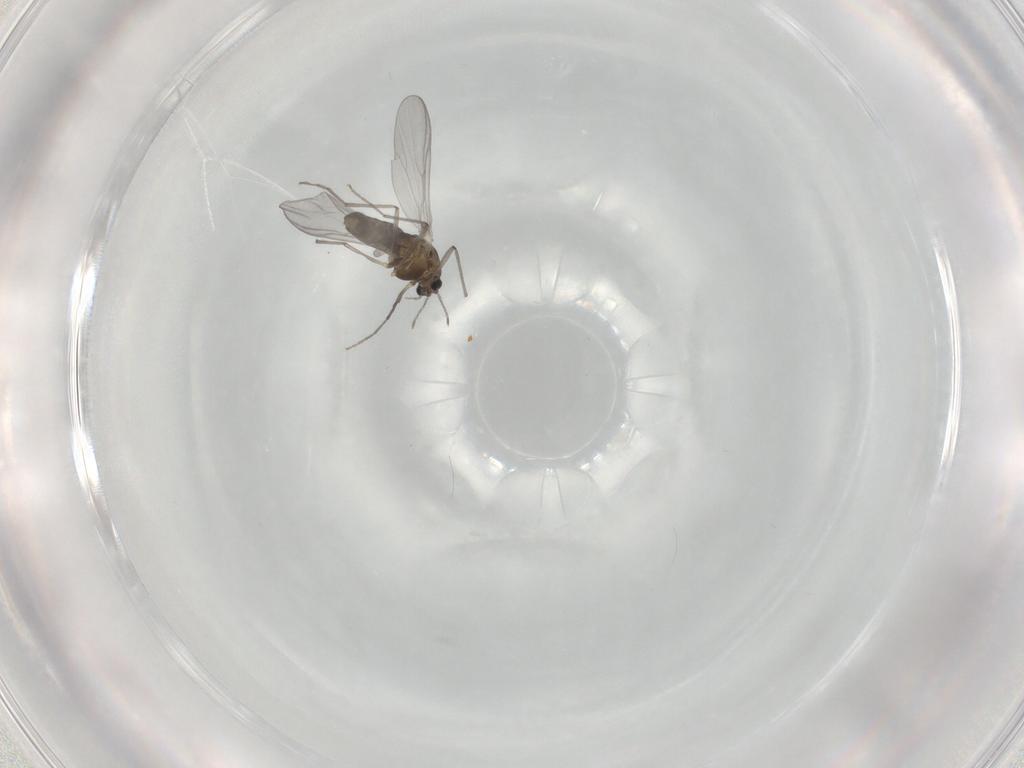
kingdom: Animalia
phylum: Arthropoda
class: Insecta
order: Diptera
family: Chironomidae
